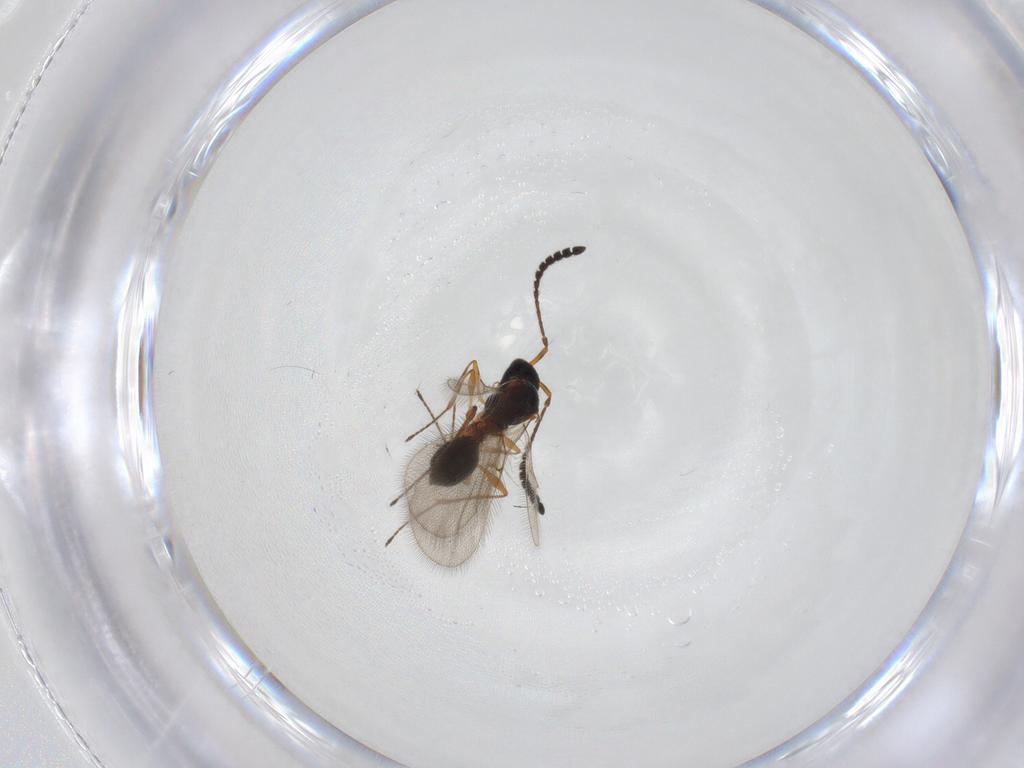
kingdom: Animalia
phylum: Arthropoda
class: Insecta
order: Hymenoptera
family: Diapriidae
